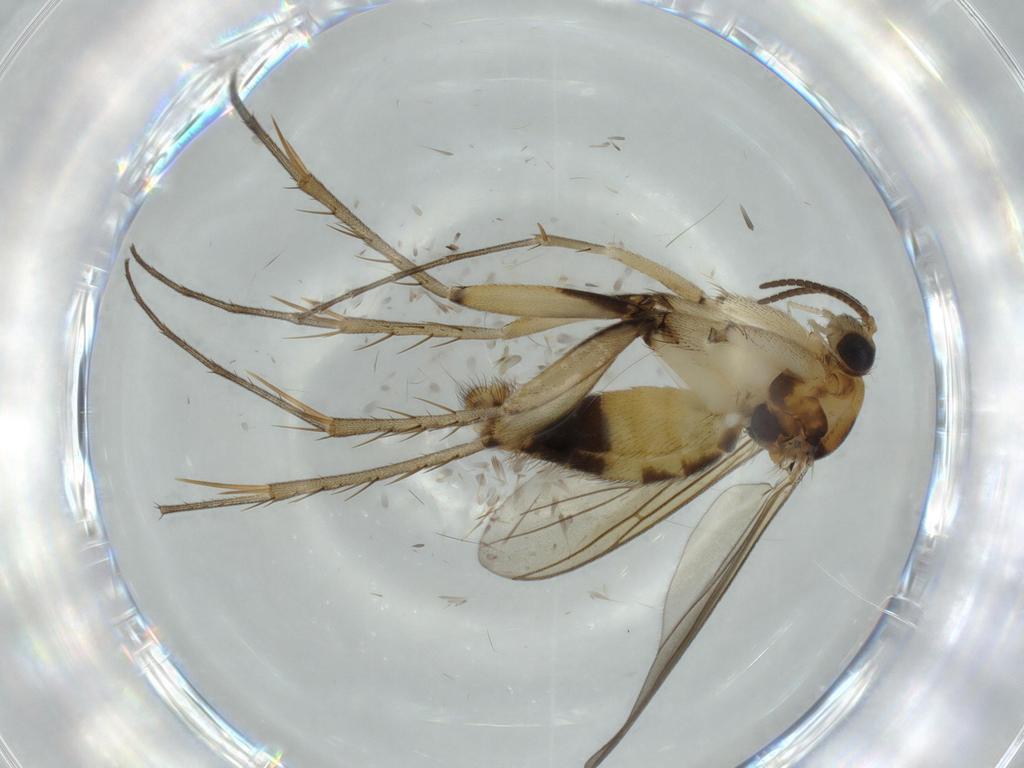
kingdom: Animalia
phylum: Arthropoda
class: Insecta
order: Diptera
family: Mycetophilidae
